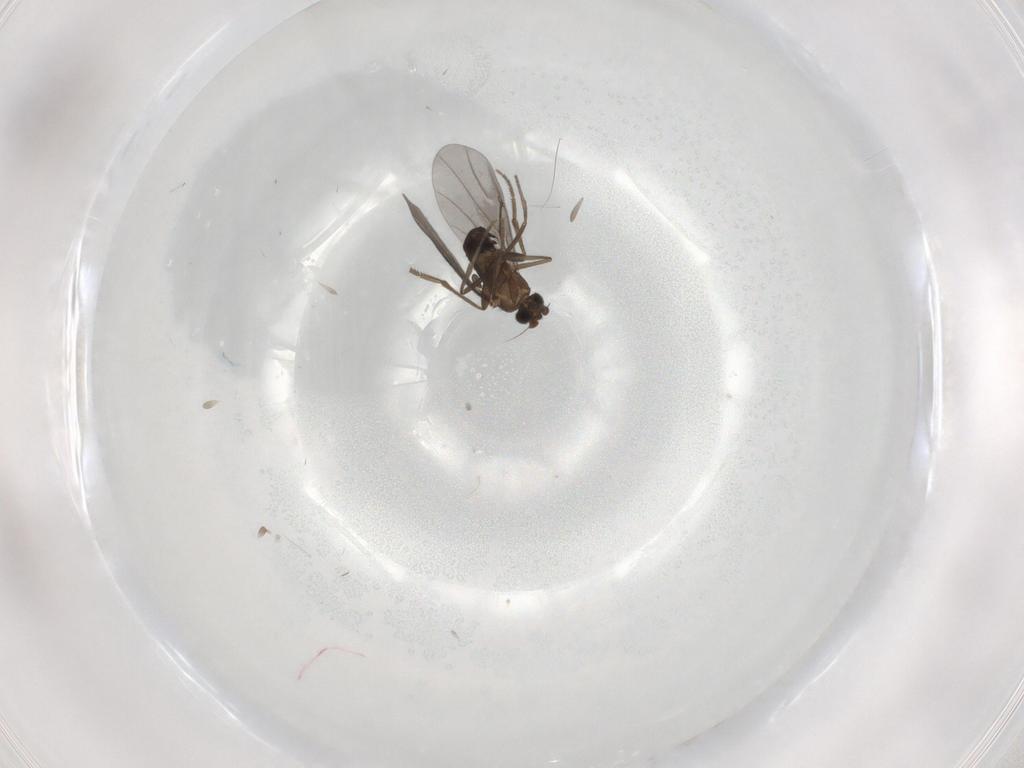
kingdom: Animalia
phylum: Arthropoda
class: Insecta
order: Diptera
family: Phoridae
